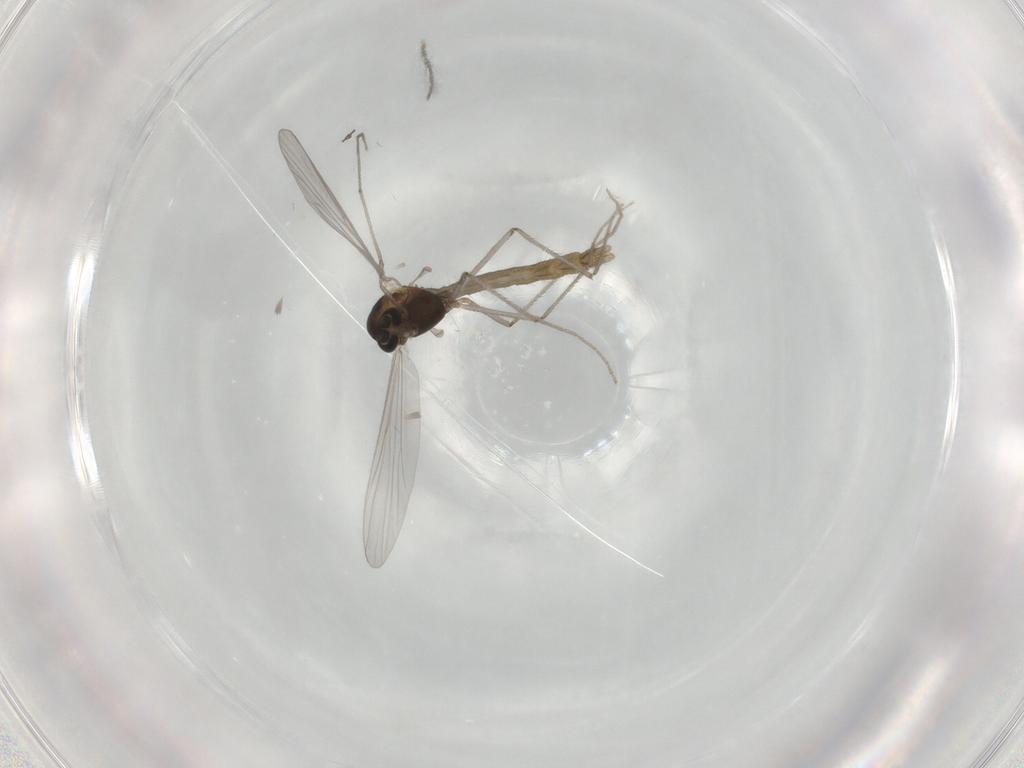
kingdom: Animalia
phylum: Arthropoda
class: Insecta
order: Diptera
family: Chironomidae
